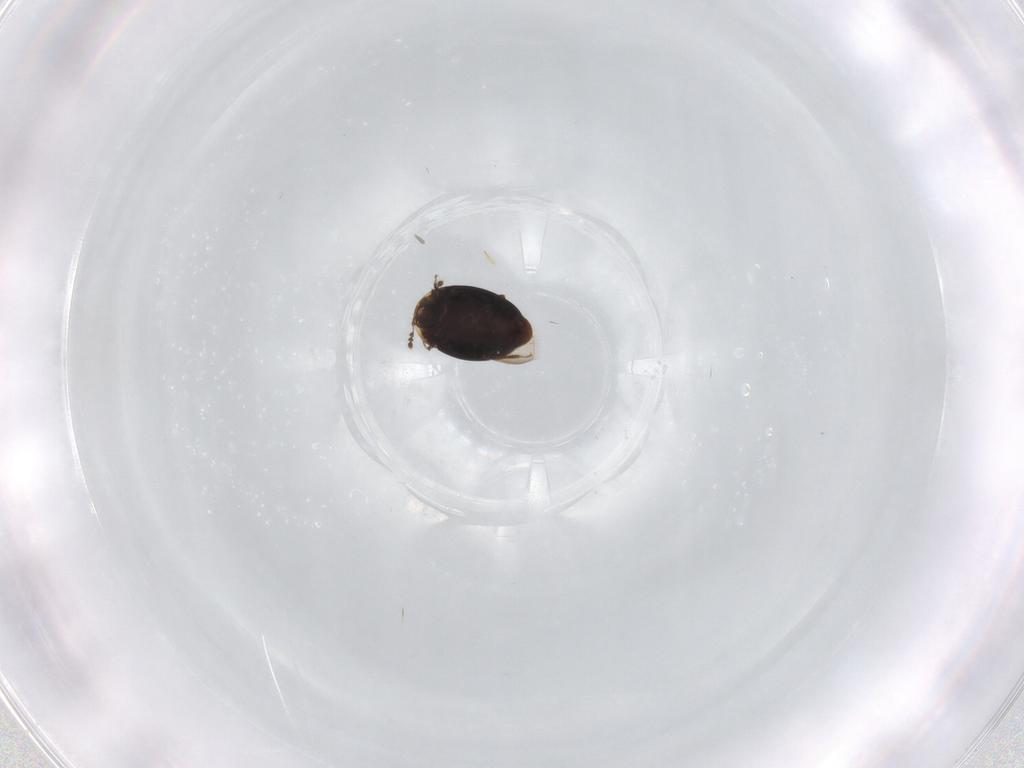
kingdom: Animalia
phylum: Arthropoda
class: Insecta
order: Coleoptera
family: Corylophidae
